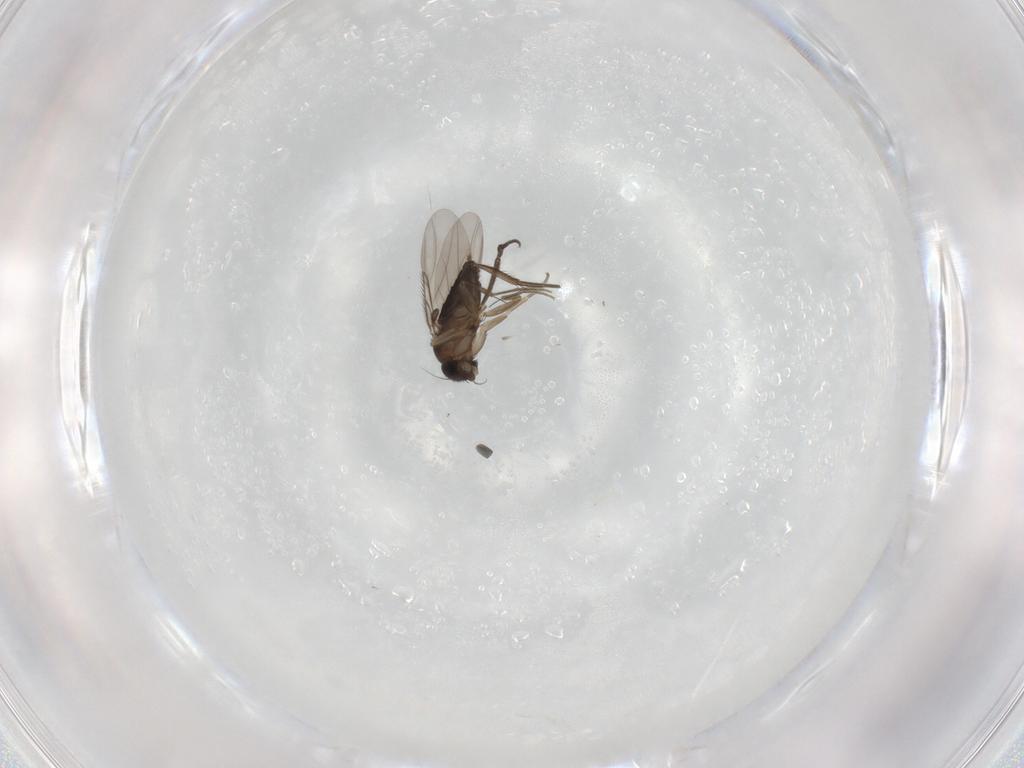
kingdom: Animalia
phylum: Arthropoda
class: Insecta
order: Diptera
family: Phoridae
